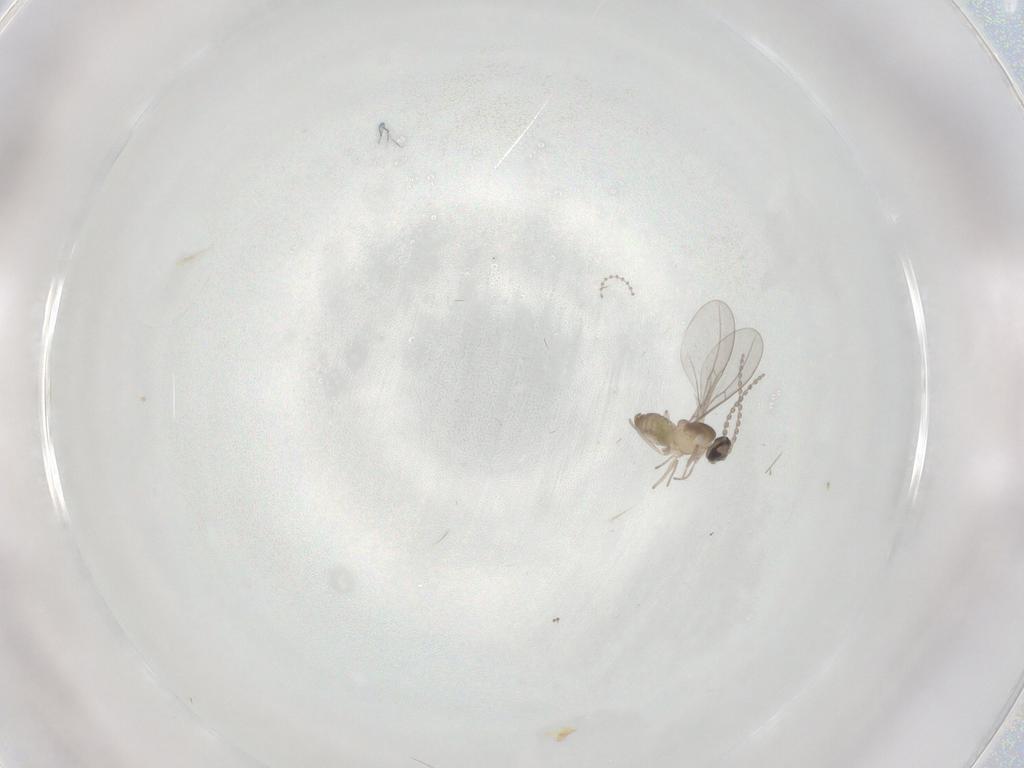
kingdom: Animalia
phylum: Arthropoda
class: Insecta
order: Diptera
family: Cecidomyiidae
